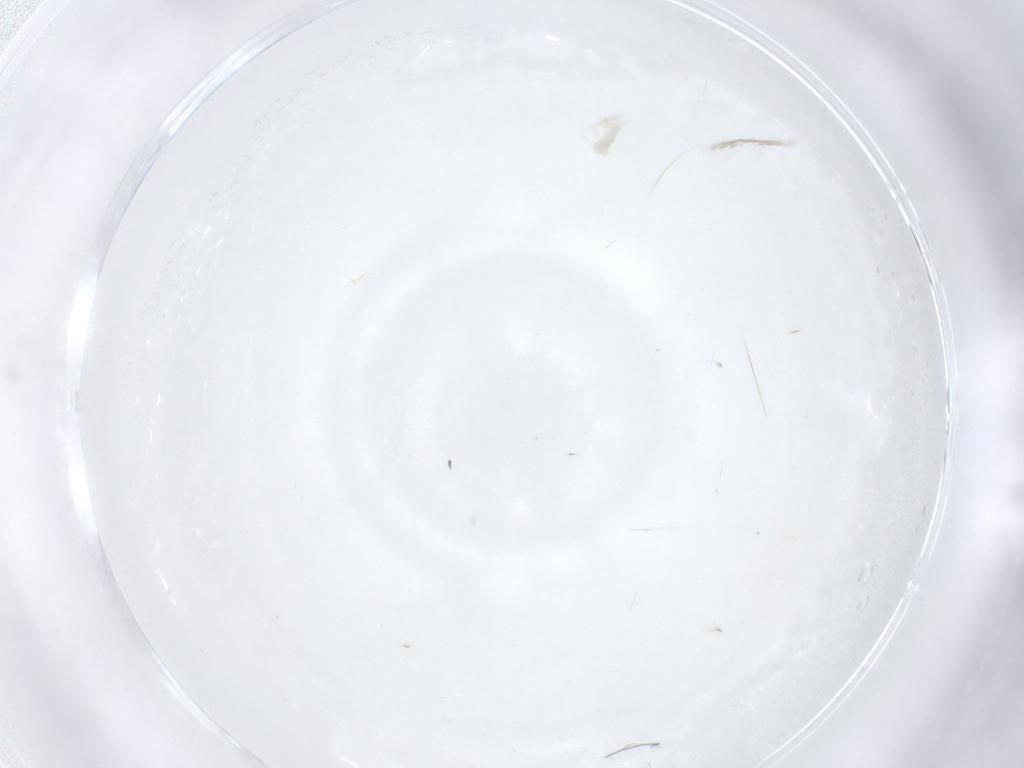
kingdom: Animalia
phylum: Arthropoda
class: Arachnida
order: Trombidiformes
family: Anystidae
